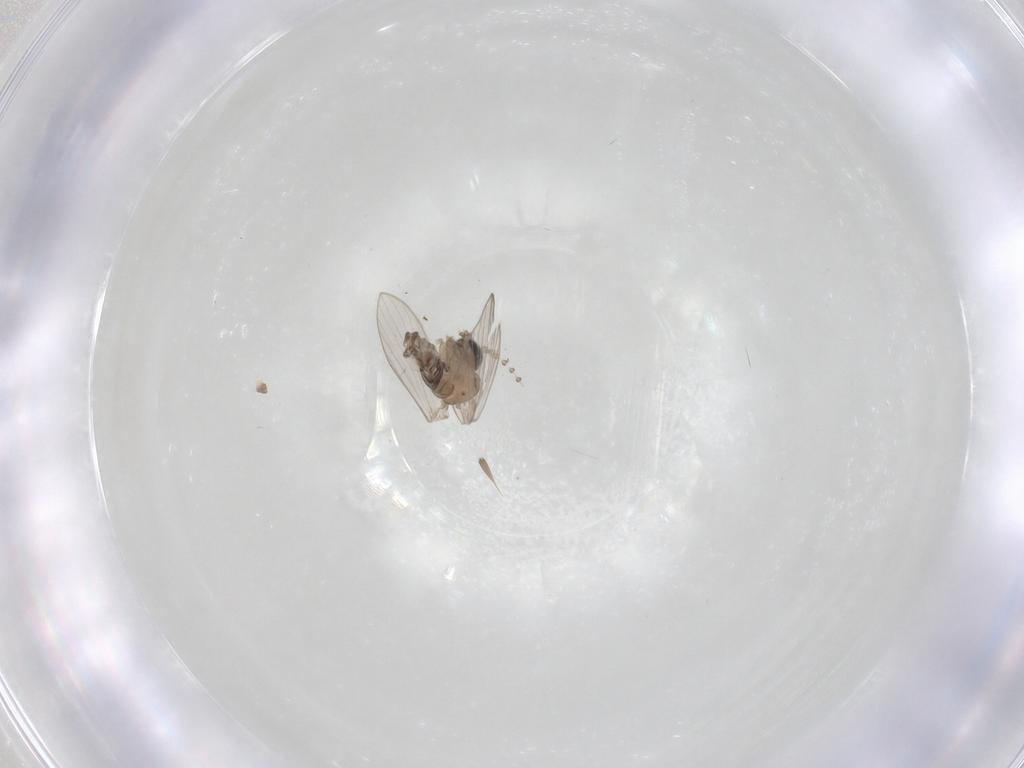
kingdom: Animalia
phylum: Arthropoda
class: Insecta
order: Diptera
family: Psychodidae
